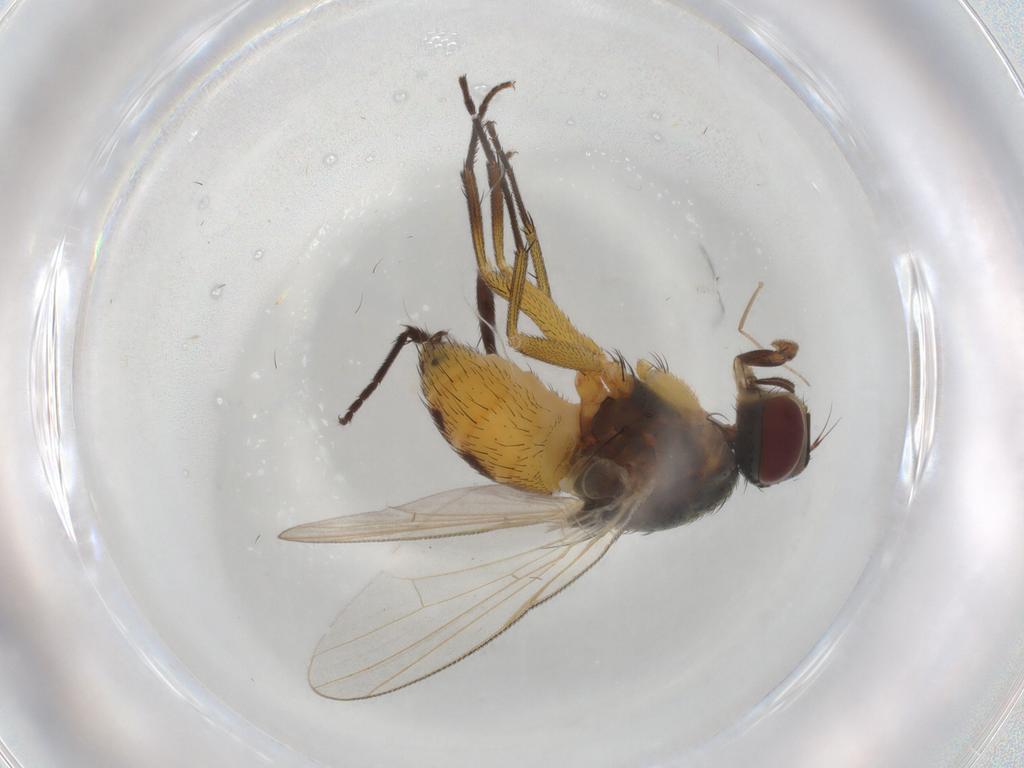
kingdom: Animalia
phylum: Arthropoda
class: Insecta
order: Diptera
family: Muscidae
